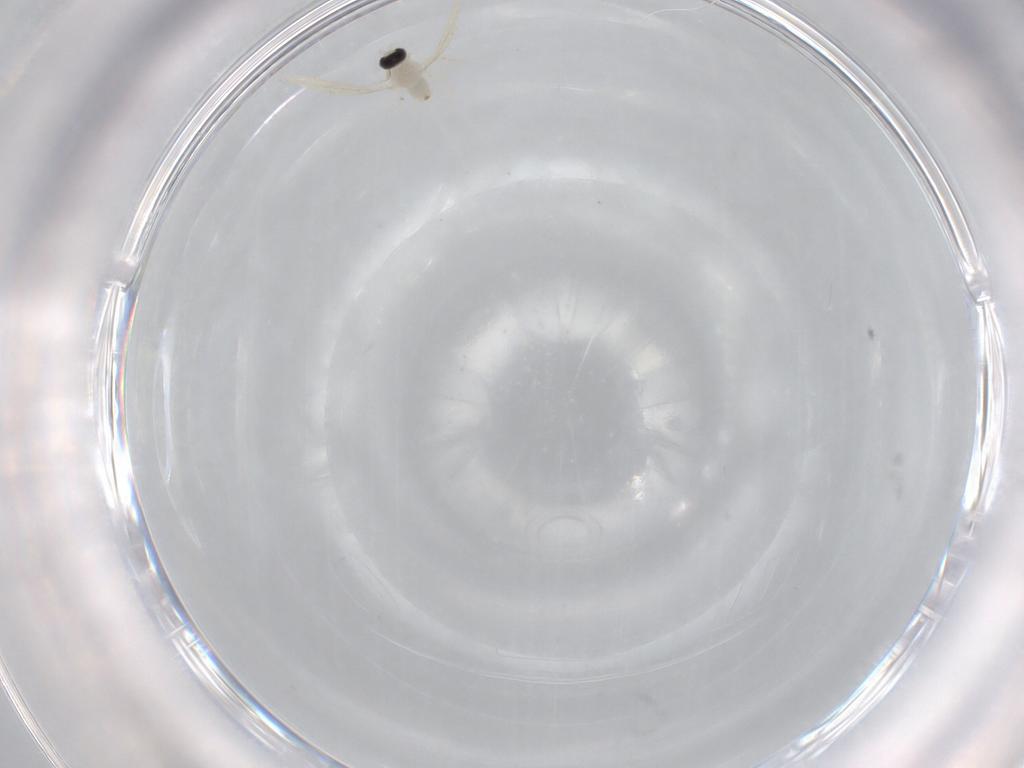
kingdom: Animalia
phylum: Arthropoda
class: Insecta
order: Diptera
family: Cecidomyiidae
